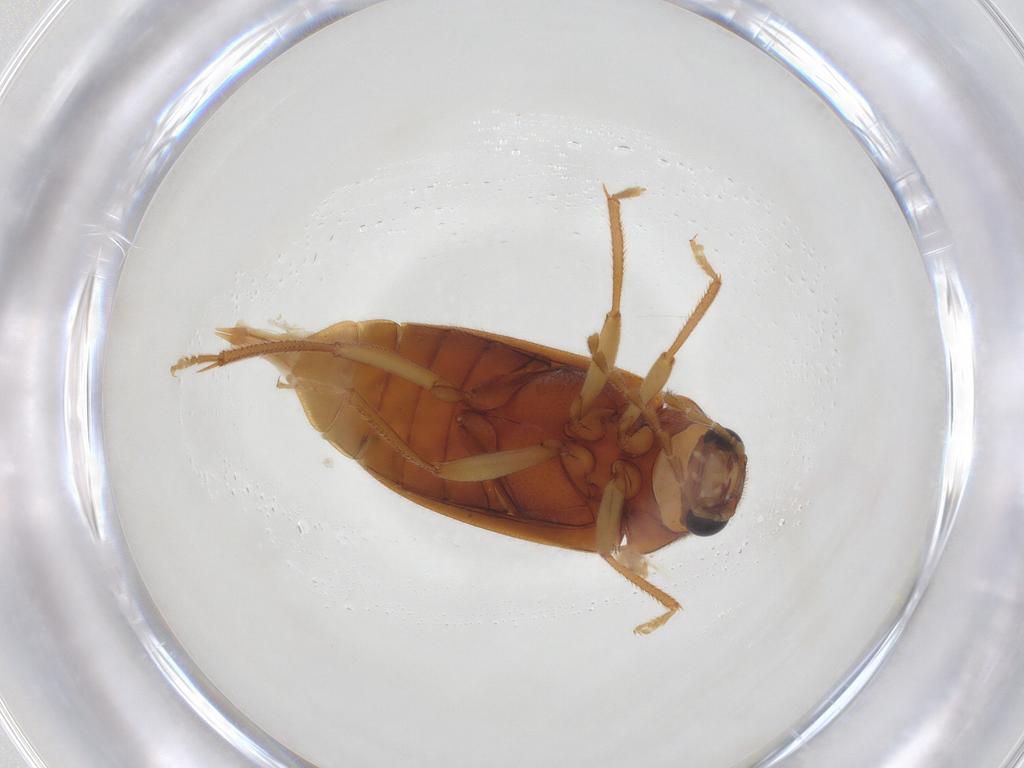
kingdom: Animalia
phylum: Arthropoda
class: Insecta
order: Coleoptera
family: Ptilodactylidae
